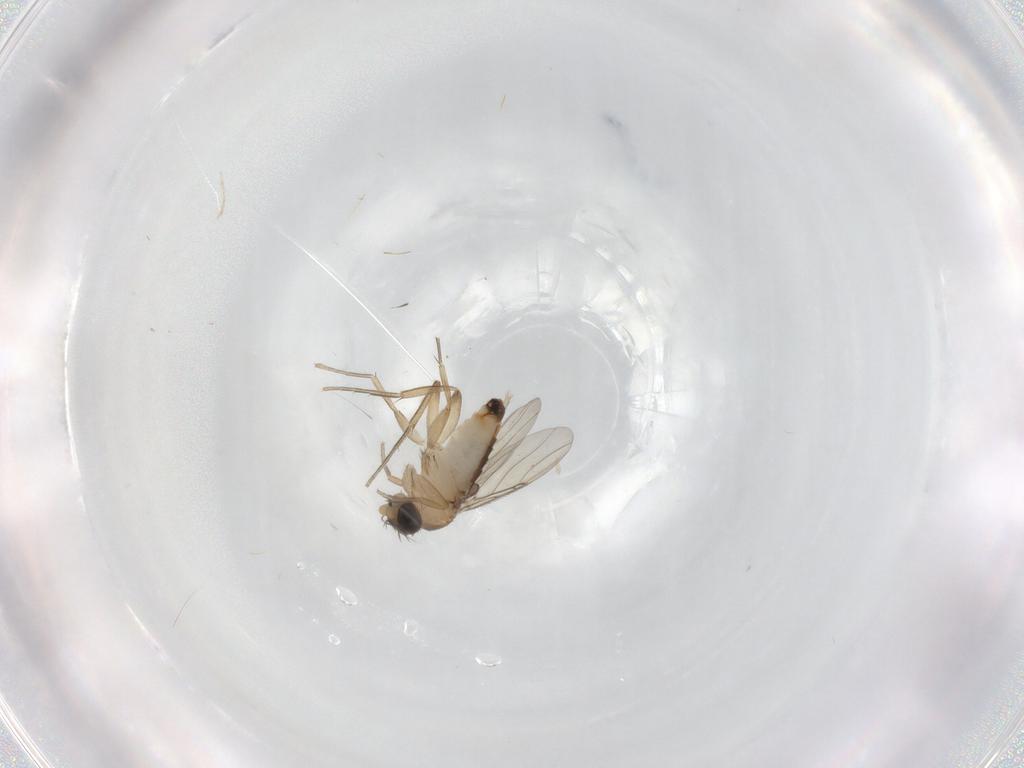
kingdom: Animalia
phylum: Arthropoda
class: Insecta
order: Diptera
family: Phoridae
